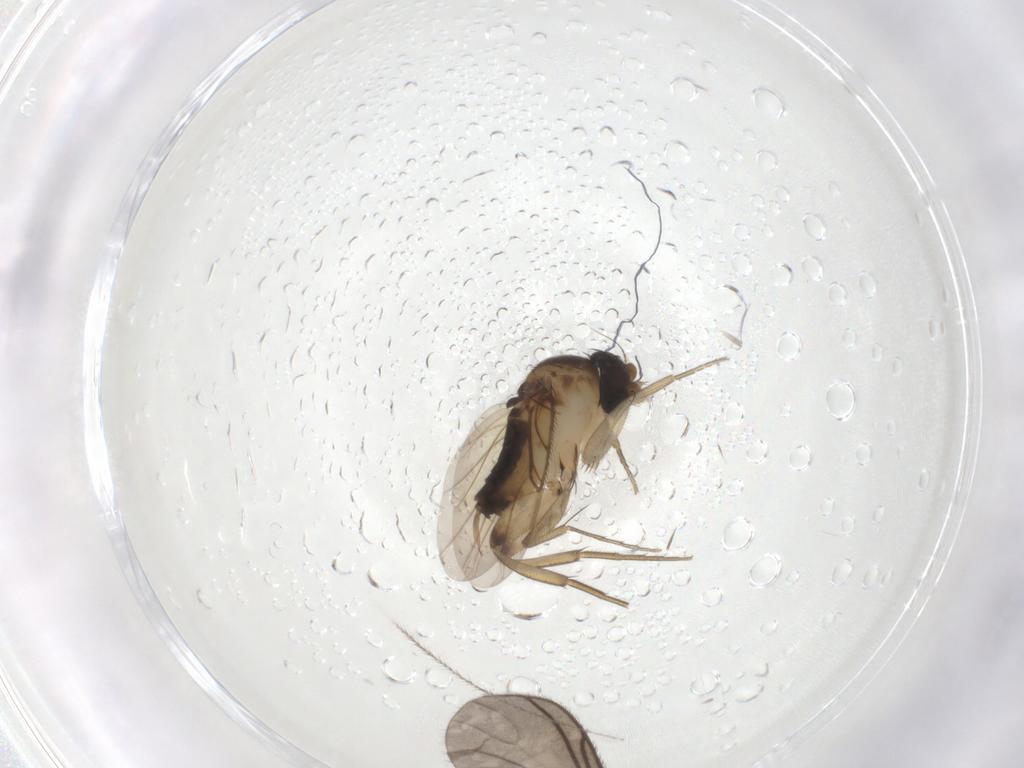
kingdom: Animalia
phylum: Arthropoda
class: Insecta
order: Diptera
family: Phoridae
